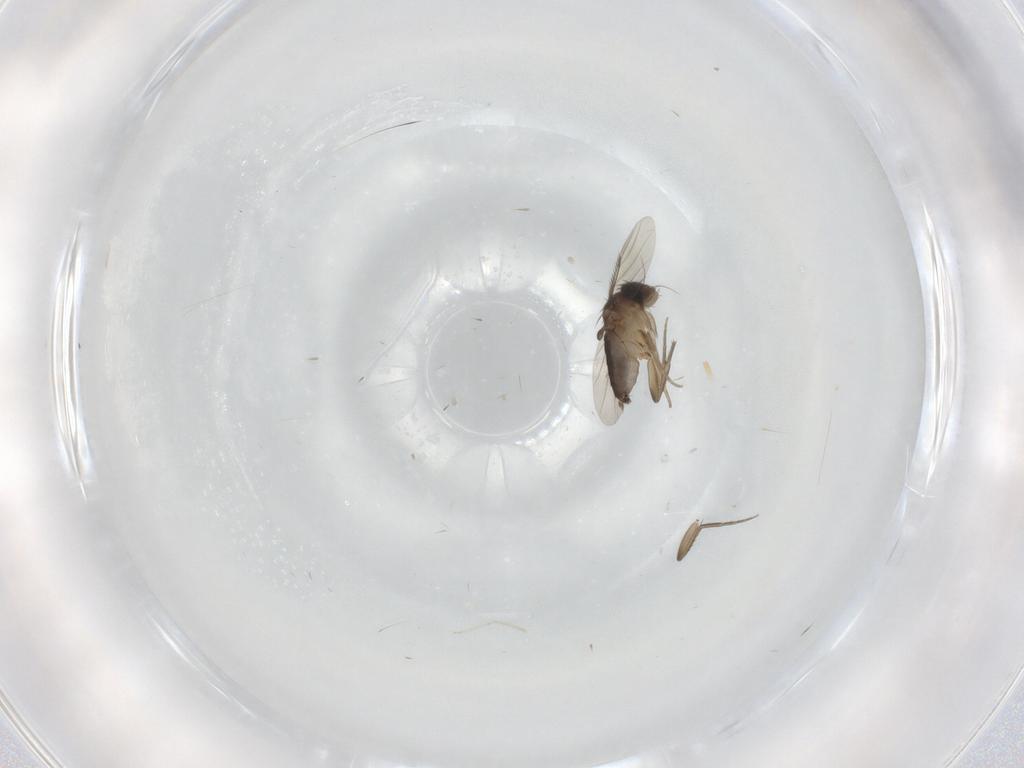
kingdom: Animalia
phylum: Arthropoda
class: Insecta
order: Diptera
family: Phoridae
